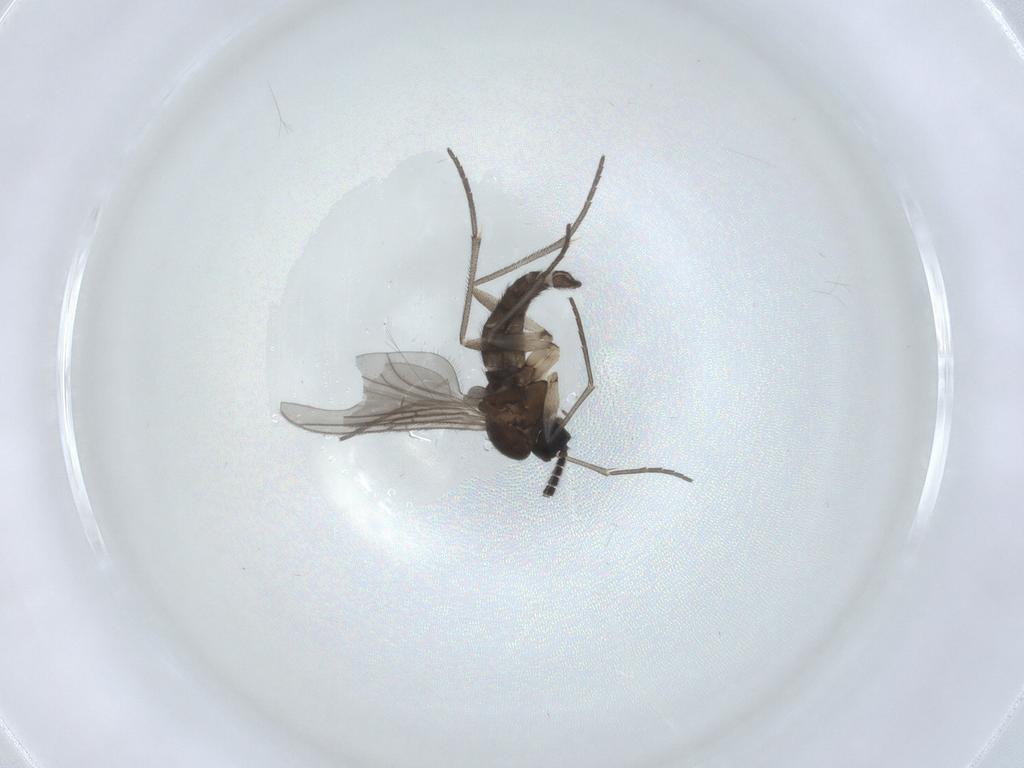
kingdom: Animalia
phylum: Arthropoda
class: Insecta
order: Diptera
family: Sciaridae
